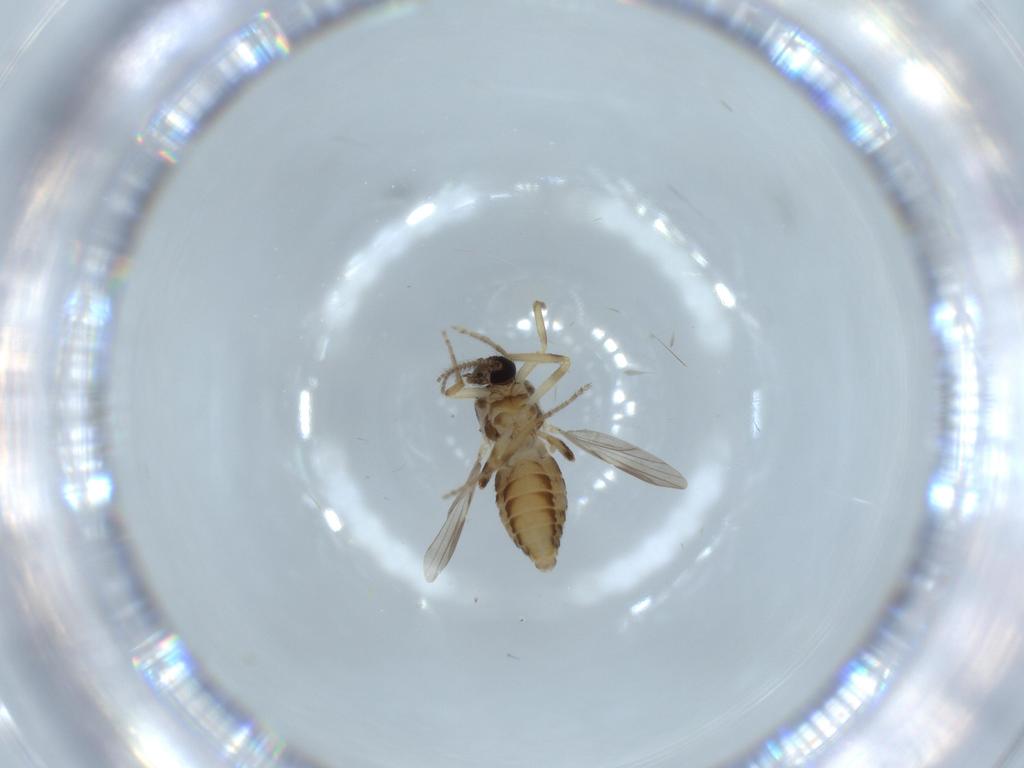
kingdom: Animalia
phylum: Arthropoda
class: Insecta
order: Diptera
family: Ceratopogonidae
